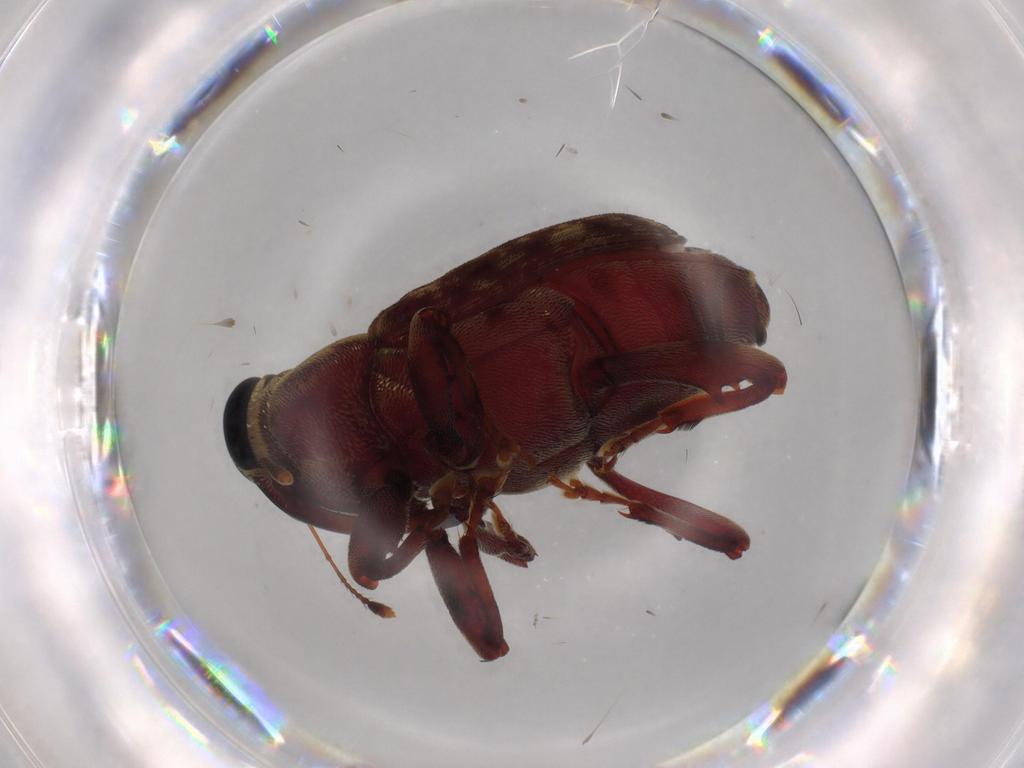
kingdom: Animalia
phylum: Arthropoda
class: Insecta
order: Coleoptera
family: Curculionidae
